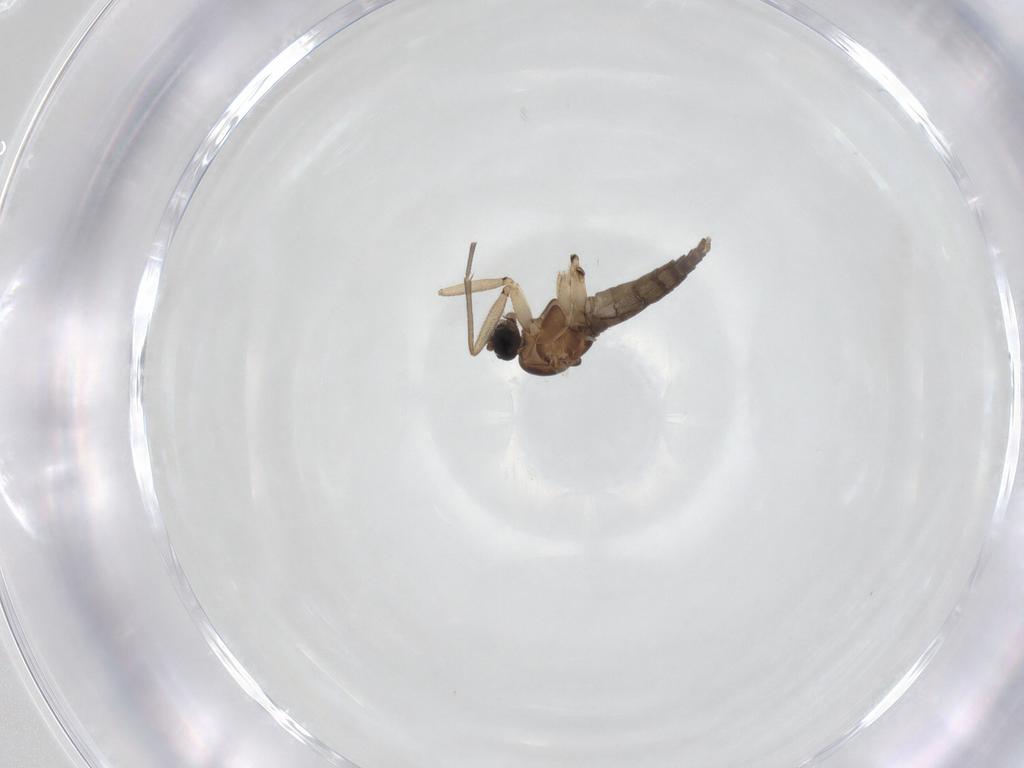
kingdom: Animalia
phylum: Arthropoda
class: Insecta
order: Diptera
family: Sciaridae
